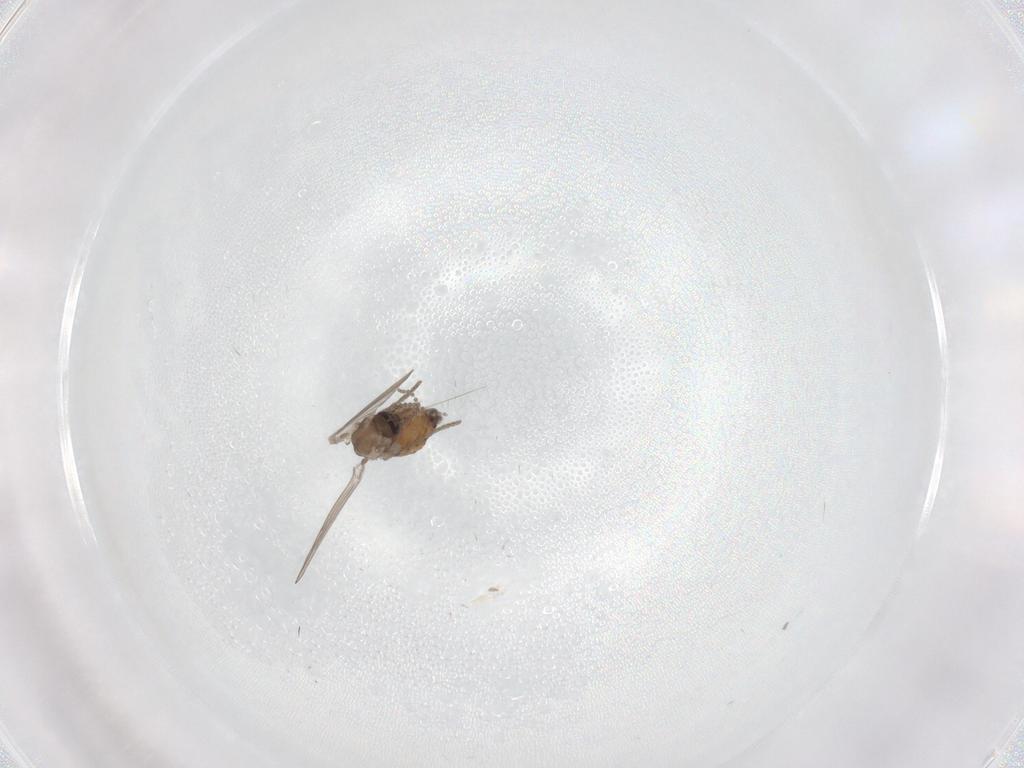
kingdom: Animalia
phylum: Arthropoda
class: Insecta
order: Diptera
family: Psychodidae
